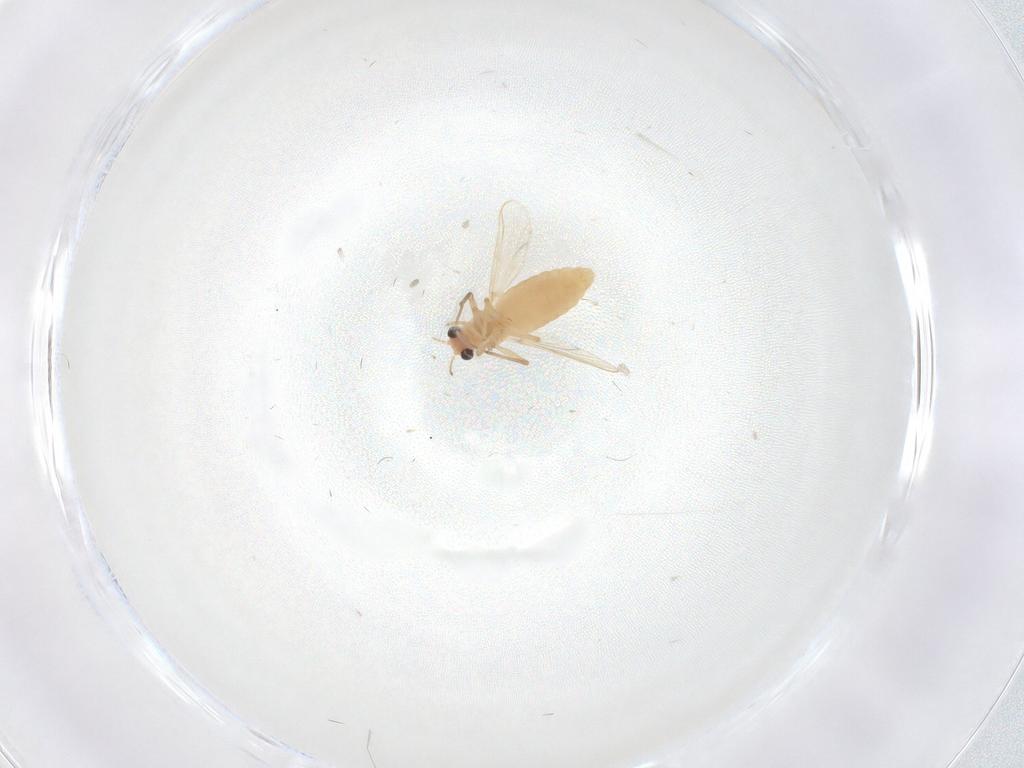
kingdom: Animalia
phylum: Arthropoda
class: Insecta
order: Diptera
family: Chironomidae
